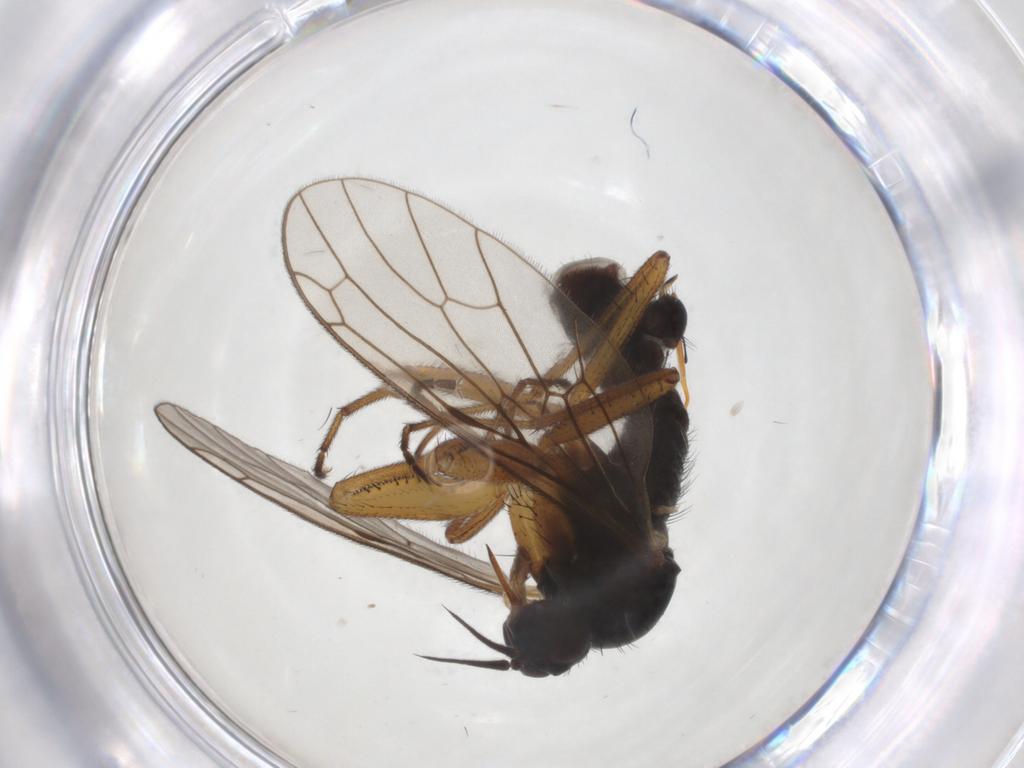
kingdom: Animalia
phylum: Arthropoda
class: Insecta
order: Diptera
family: Chironomidae
